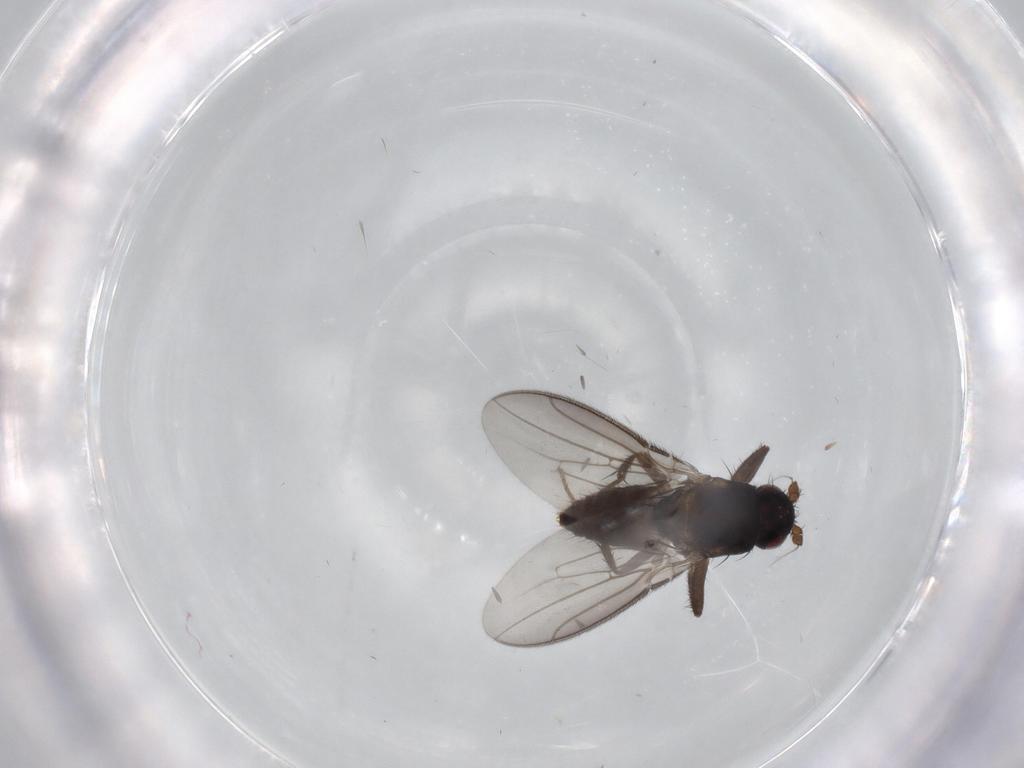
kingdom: Animalia
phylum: Arthropoda
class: Insecta
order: Diptera
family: Sphaeroceridae
